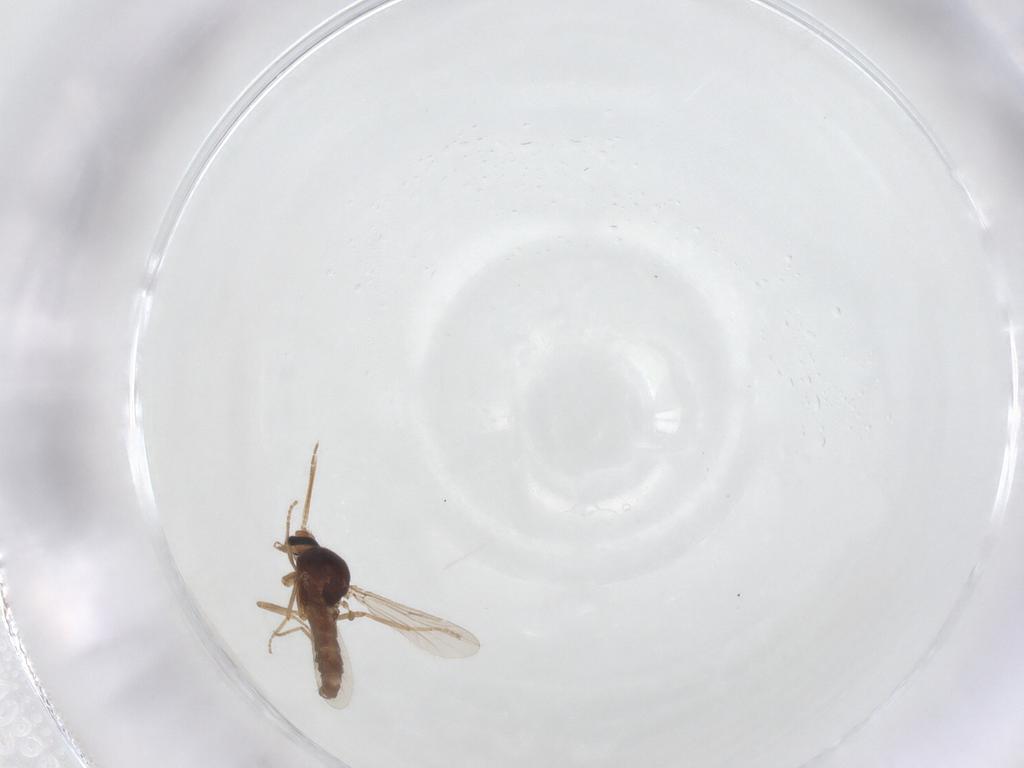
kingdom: Animalia
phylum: Arthropoda
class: Insecta
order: Diptera
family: Ceratopogonidae
